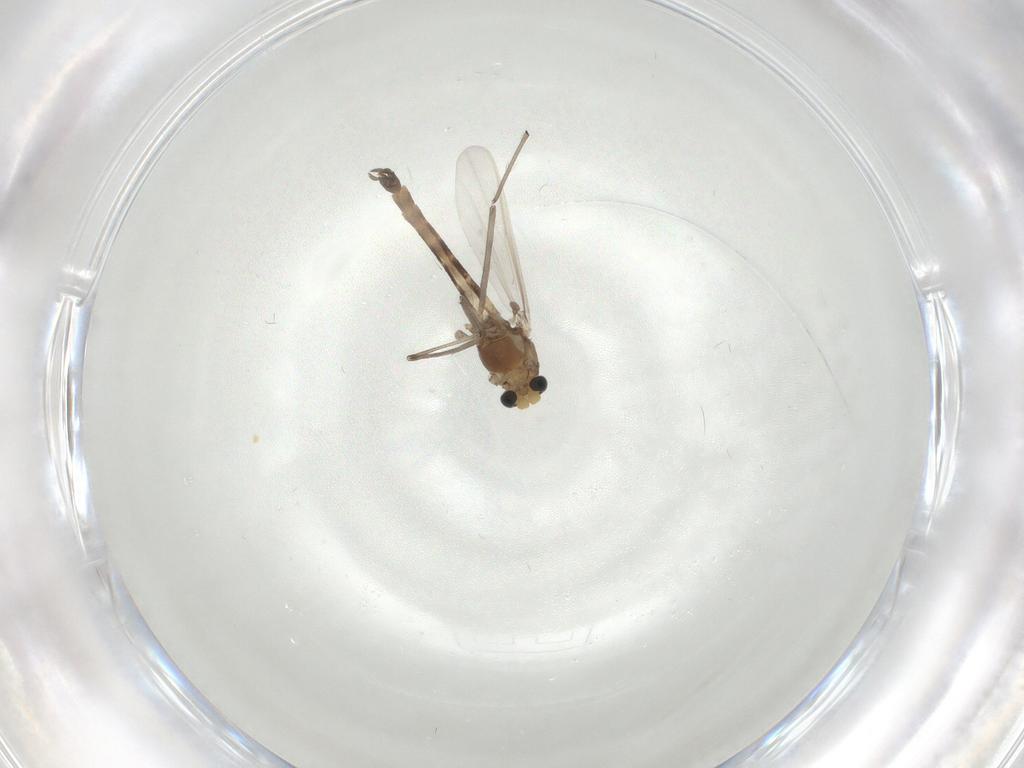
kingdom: Animalia
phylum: Arthropoda
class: Insecta
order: Diptera
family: Chironomidae
